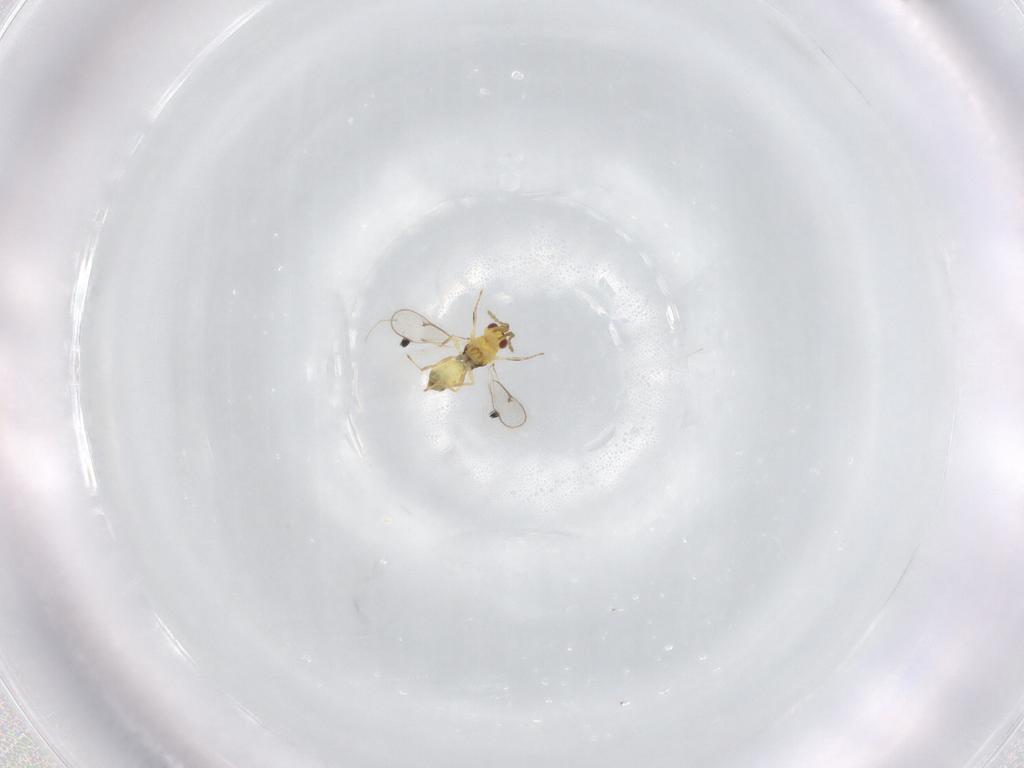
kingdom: Animalia
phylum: Arthropoda
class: Insecta
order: Hymenoptera
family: Eulophidae
